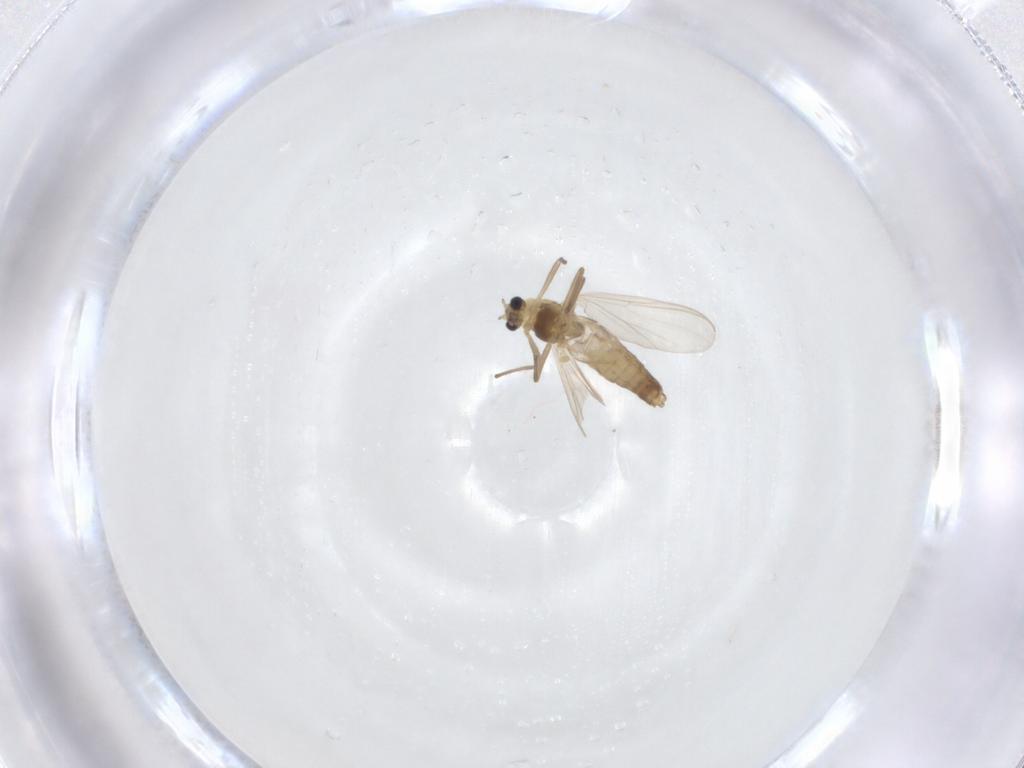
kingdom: Animalia
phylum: Arthropoda
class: Insecta
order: Diptera
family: Chironomidae
